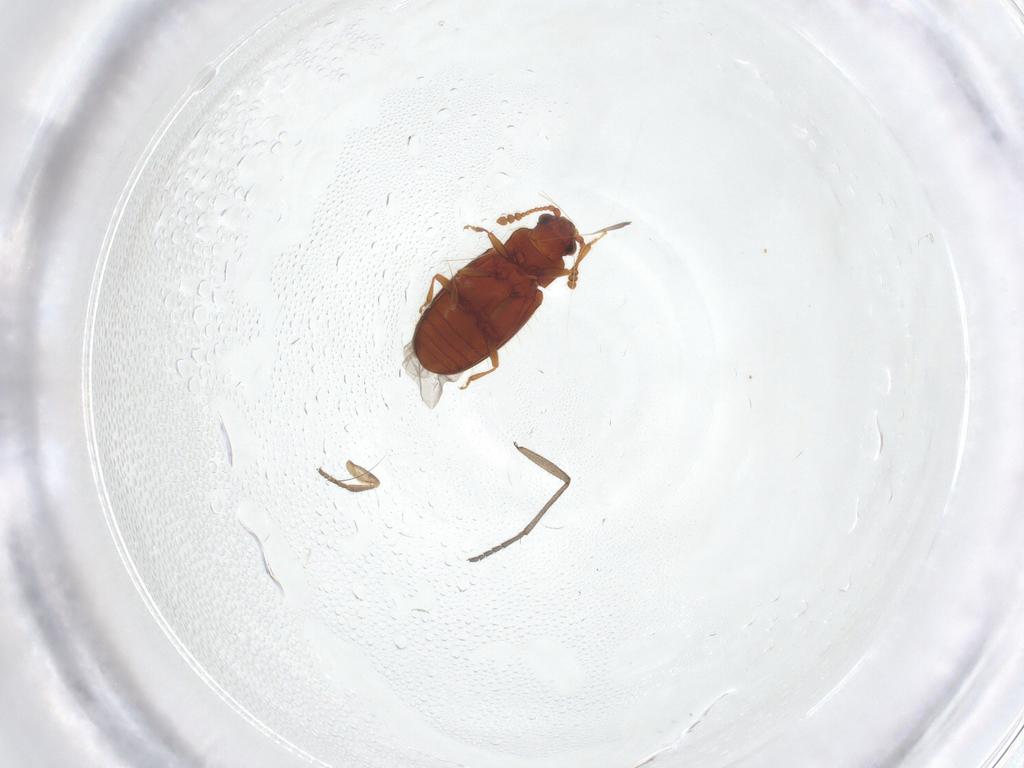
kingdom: Animalia
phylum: Arthropoda
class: Insecta
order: Coleoptera
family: Cryptophagidae
